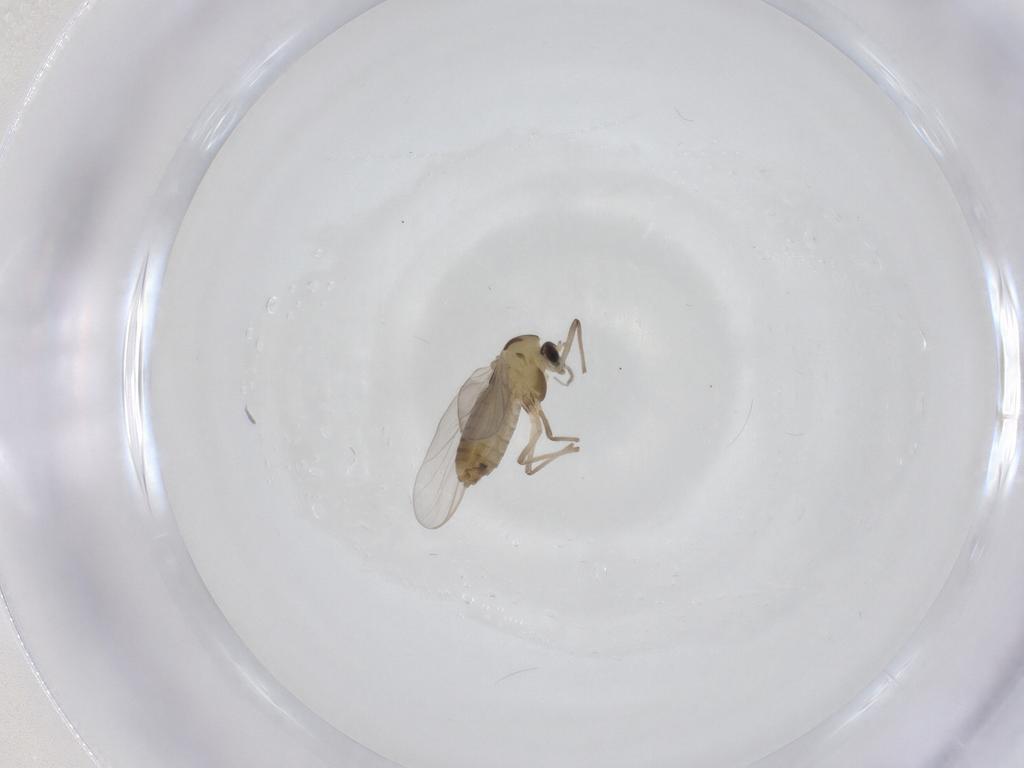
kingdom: Animalia
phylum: Arthropoda
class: Insecta
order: Diptera
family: Chironomidae
